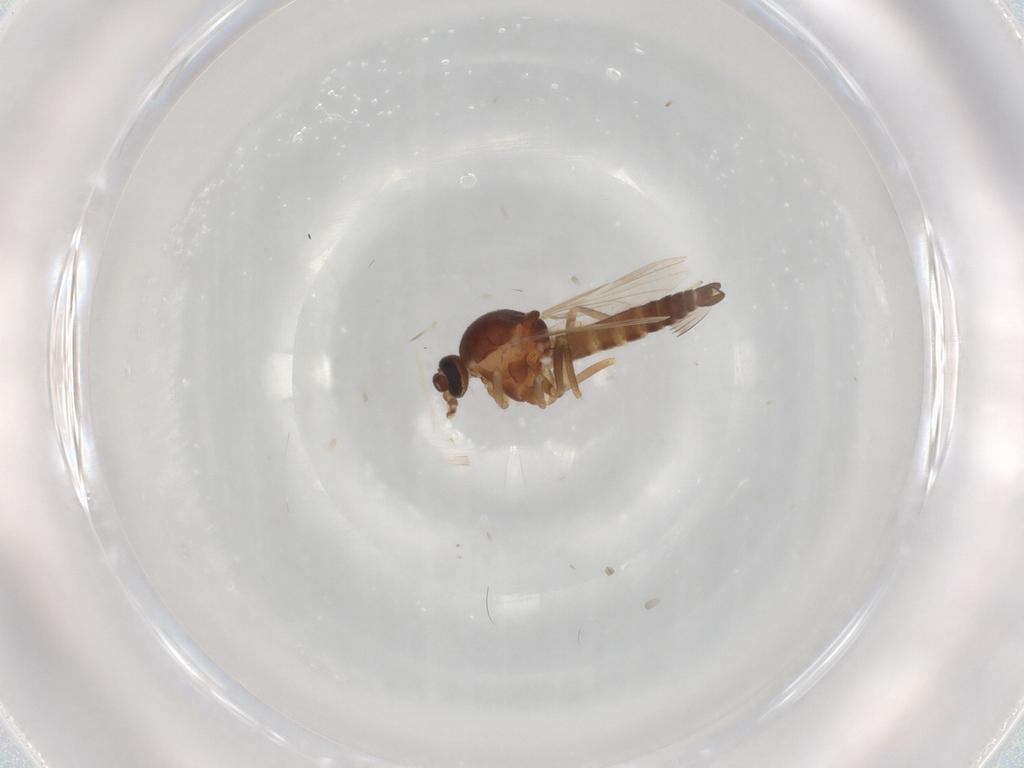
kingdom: Animalia
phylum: Arthropoda
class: Insecta
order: Diptera
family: Ceratopogonidae
